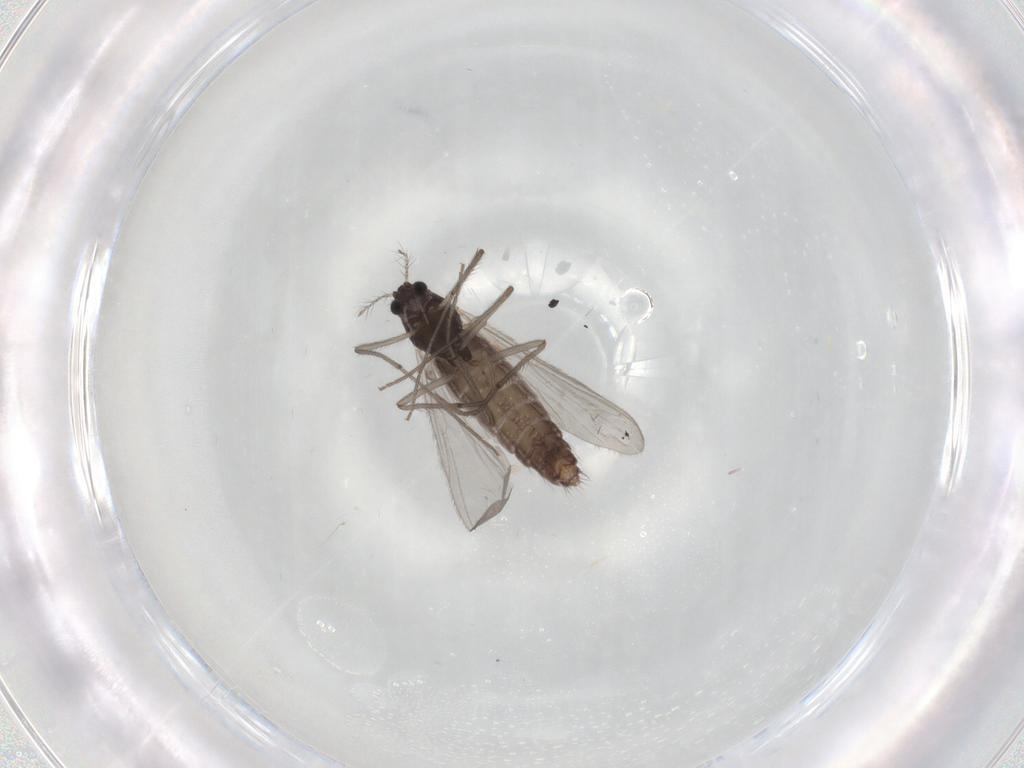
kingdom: Animalia
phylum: Arthropoda
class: Insecta
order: Diptera
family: Chironomidae
